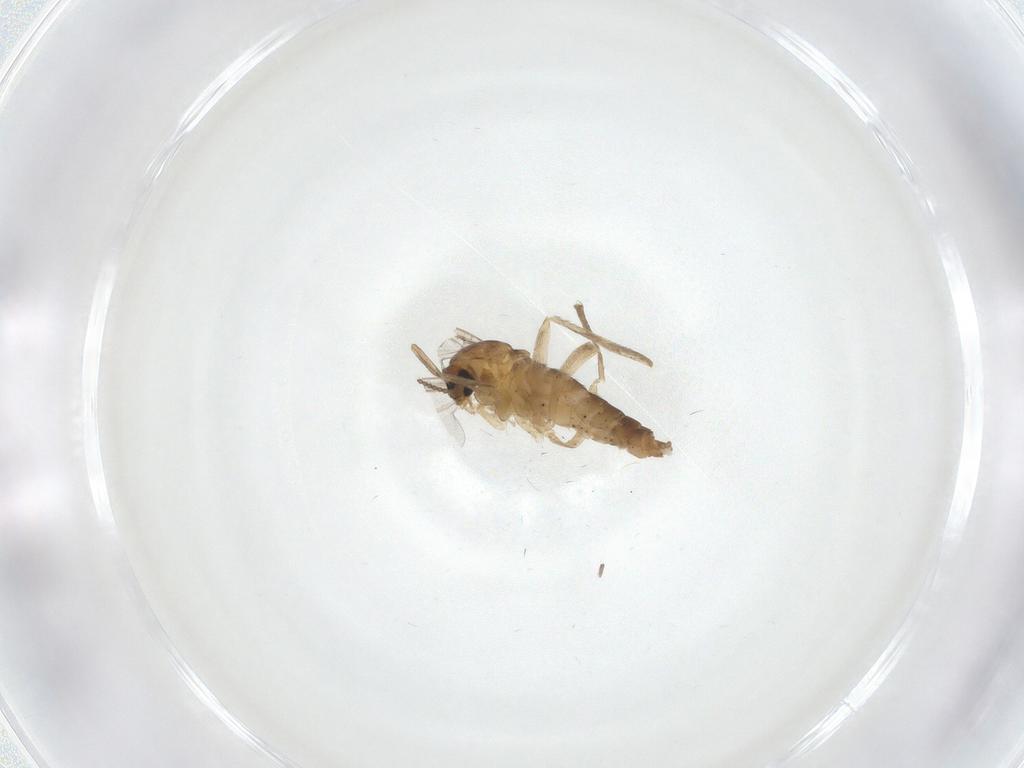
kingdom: Animalia
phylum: Arthropoda
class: Insecta
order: Diptera
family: Cecidomyiidae
